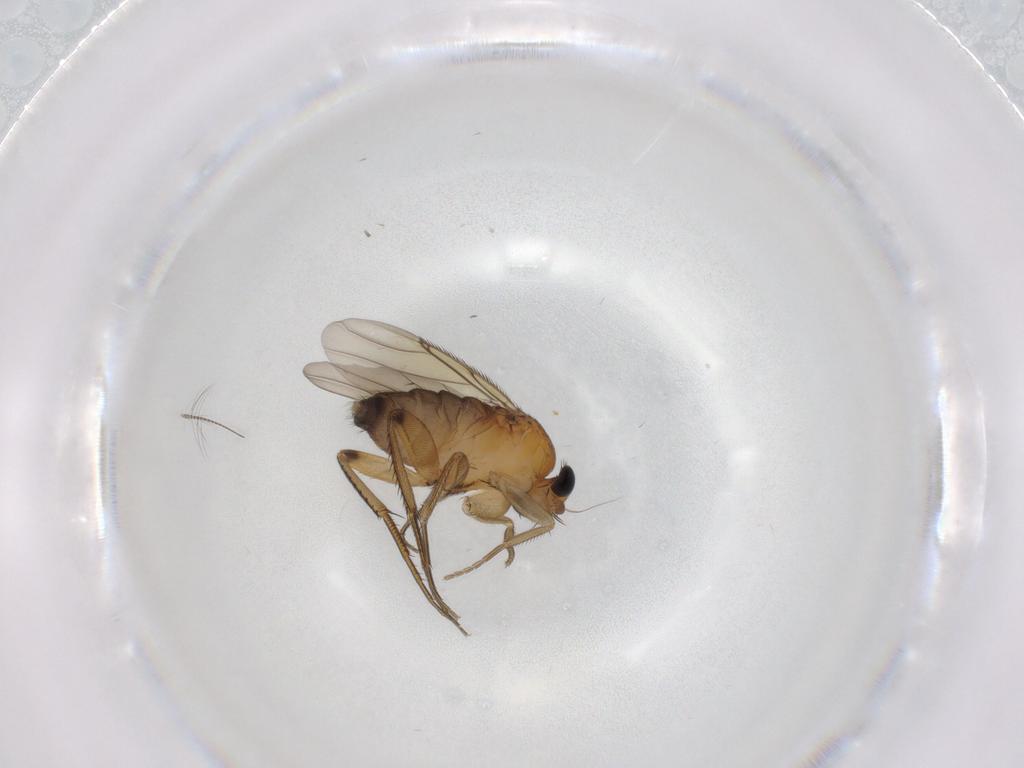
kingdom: Animalia
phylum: Arthropoda
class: Insecta
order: Diptera
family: Phoridae
